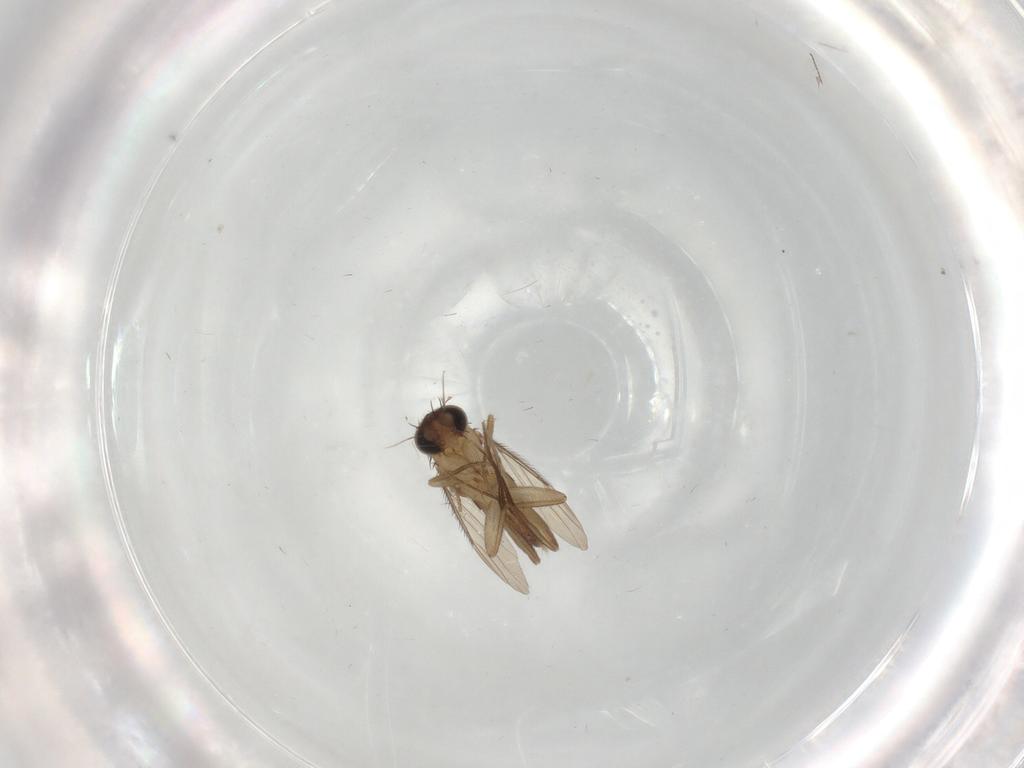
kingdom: Animalia
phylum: Arthropoda
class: Insecta
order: Diptera
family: Phoridae
